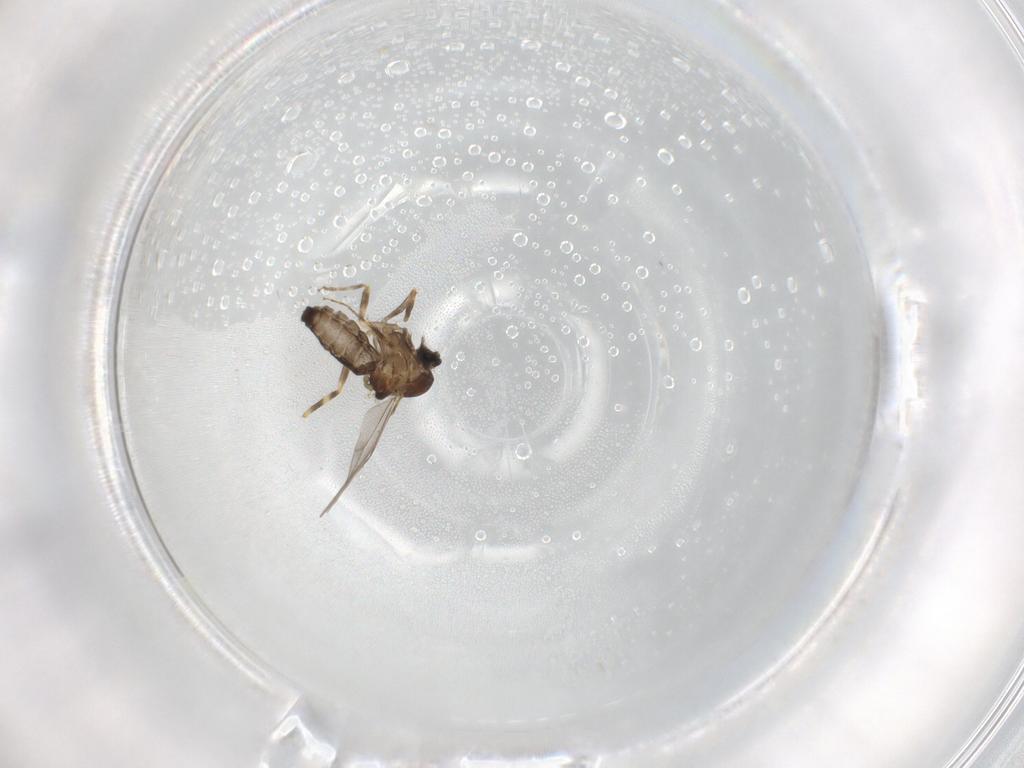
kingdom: Animalia
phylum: Arthropoda
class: Insecta
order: Diptera
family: Ceratopogonidae
